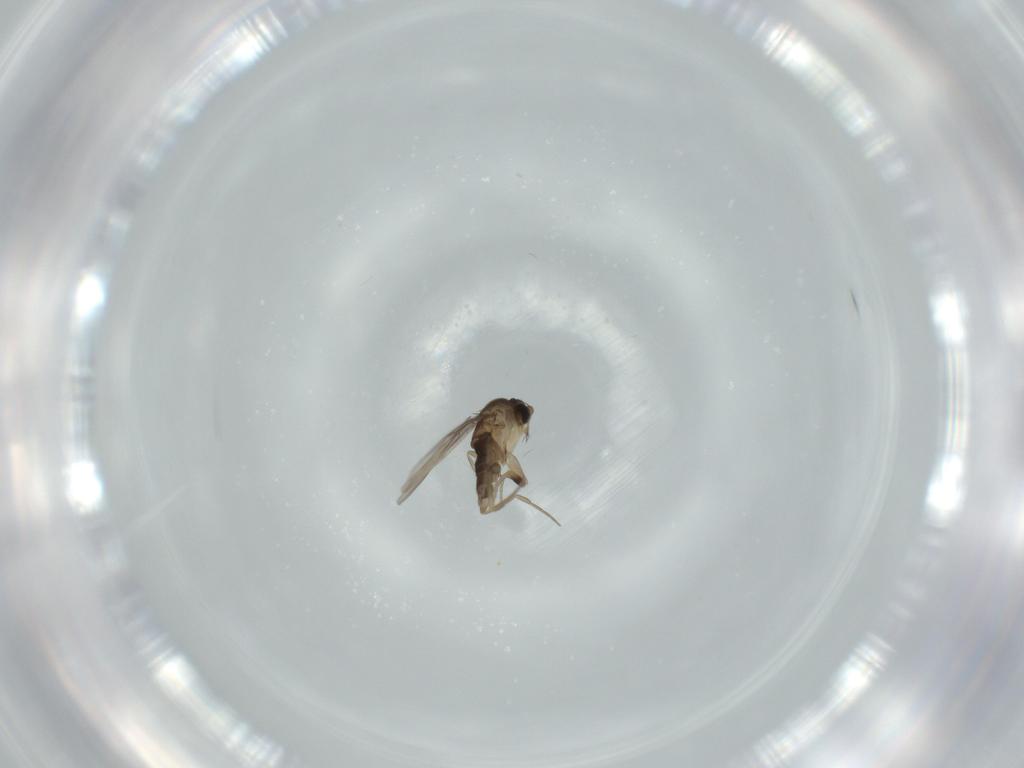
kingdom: Animalia
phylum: Arthropoda
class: Insecta
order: Diptera
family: Phoridae
